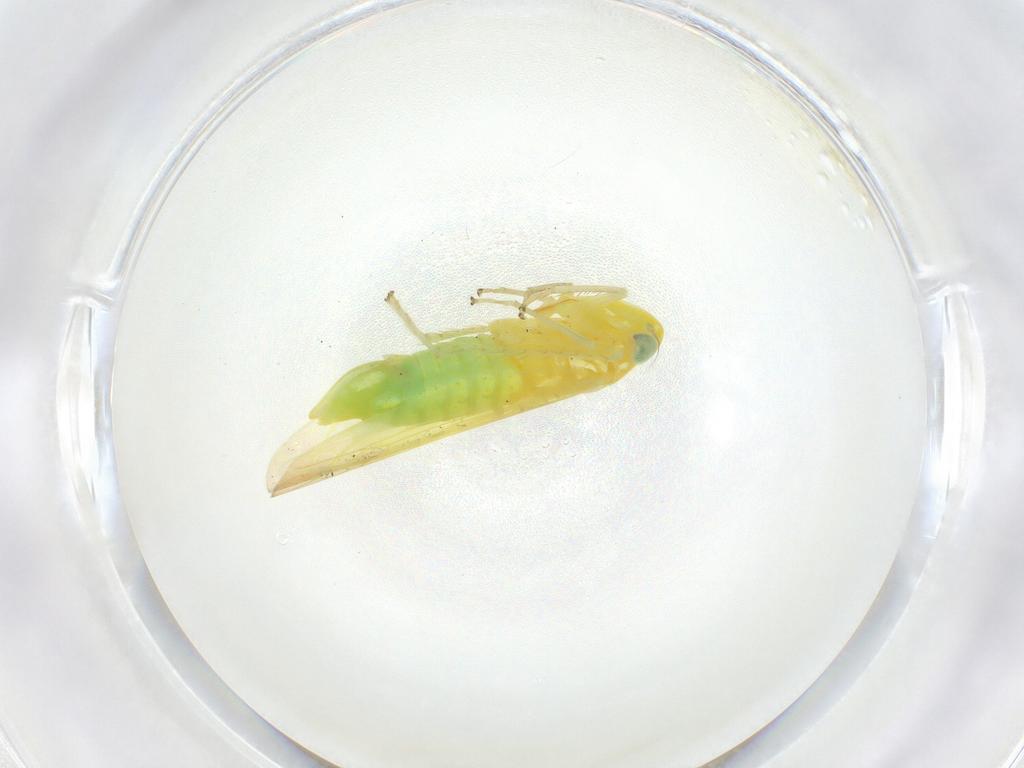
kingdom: Animalia
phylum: Arthropoda
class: Insecta
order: Hemiptera
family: Cicadellidae
